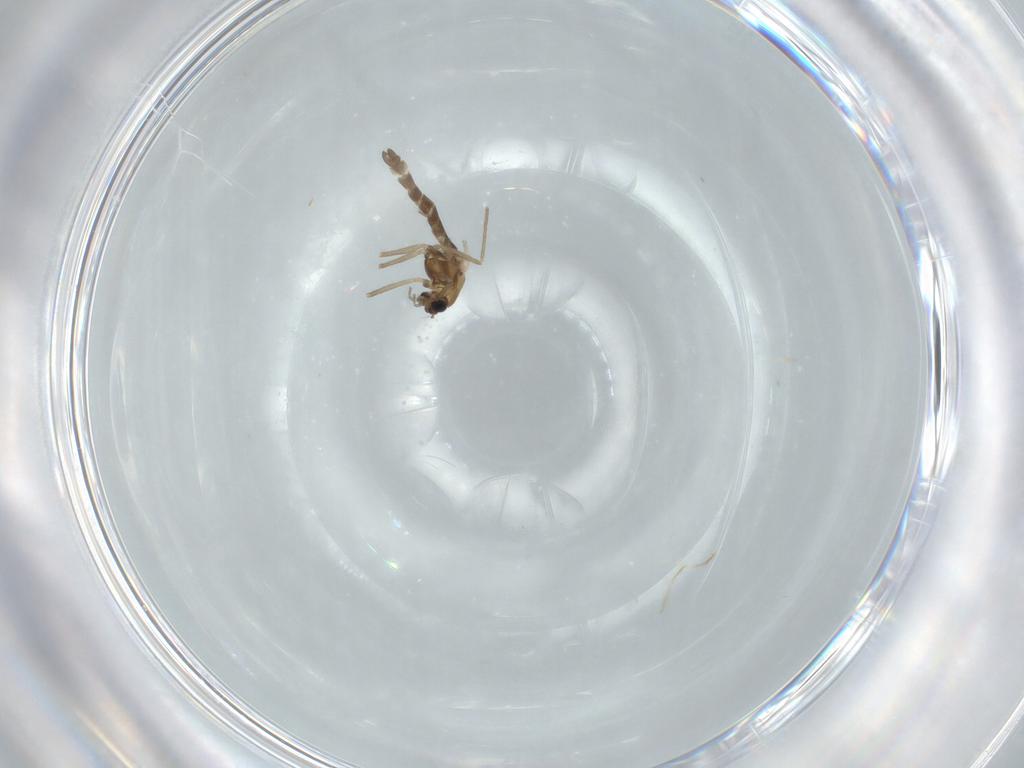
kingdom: Animalia
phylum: Arthropoda
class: Insecta
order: Diptera
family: Chironomidae
